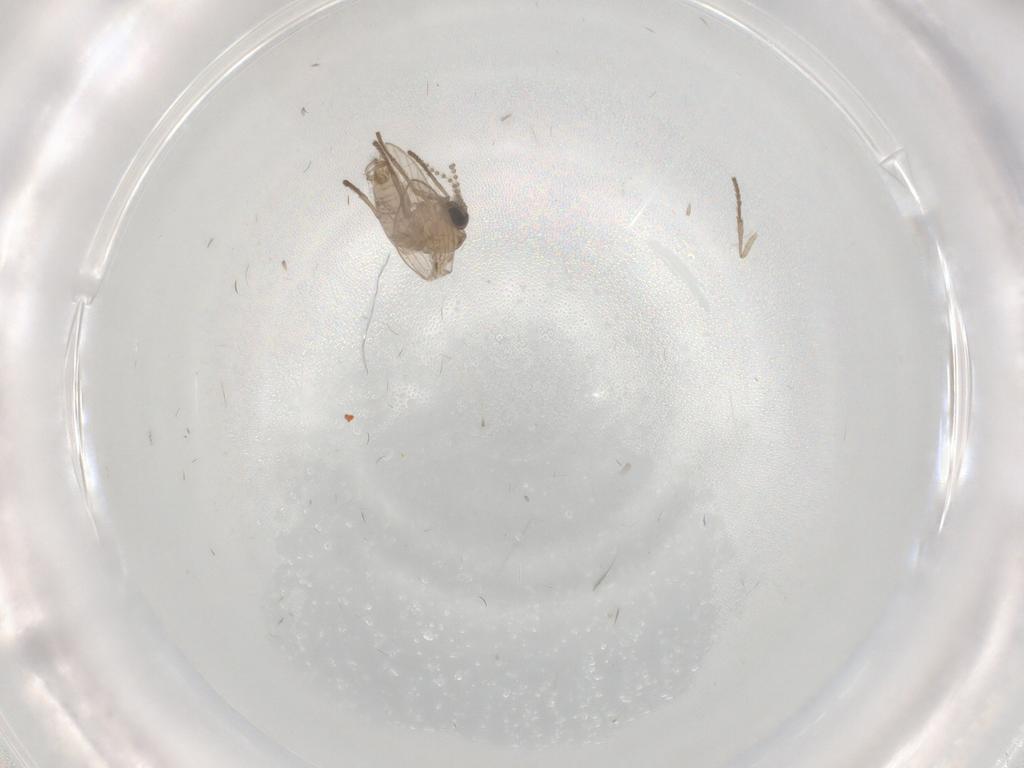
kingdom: Animalia
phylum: Arthropoda
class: Insecta
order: Diptera
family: Psychodidae
